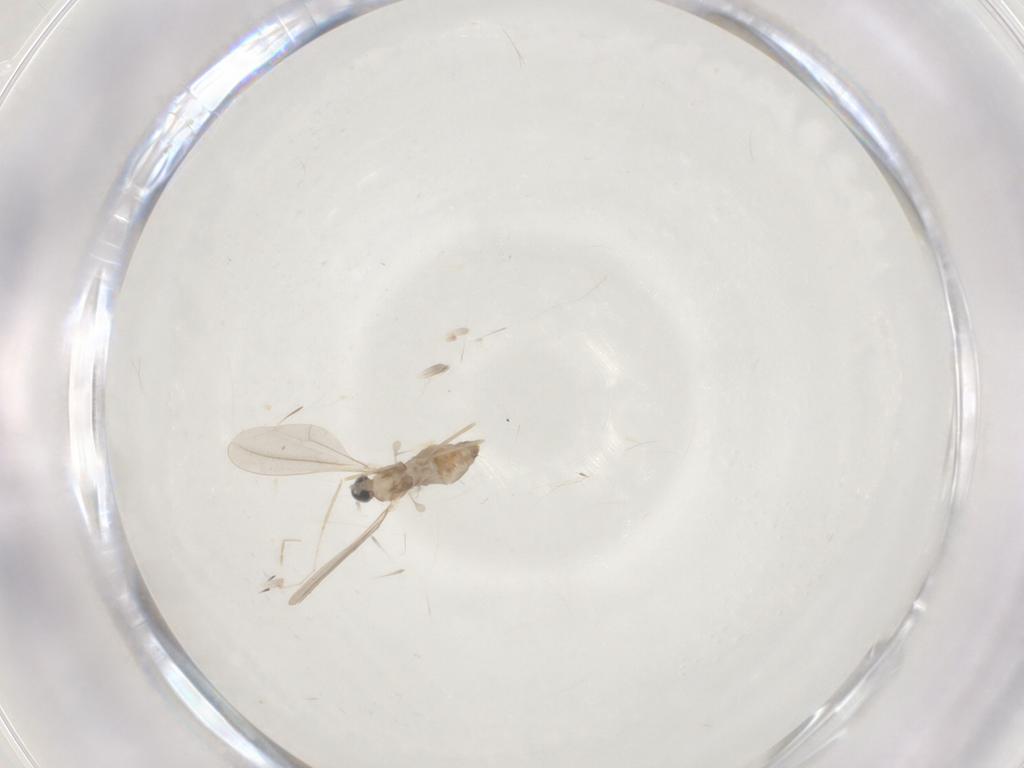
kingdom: Animalia
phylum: Arthropoda
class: Insecta
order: Diptera
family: Cecidomyiidae
